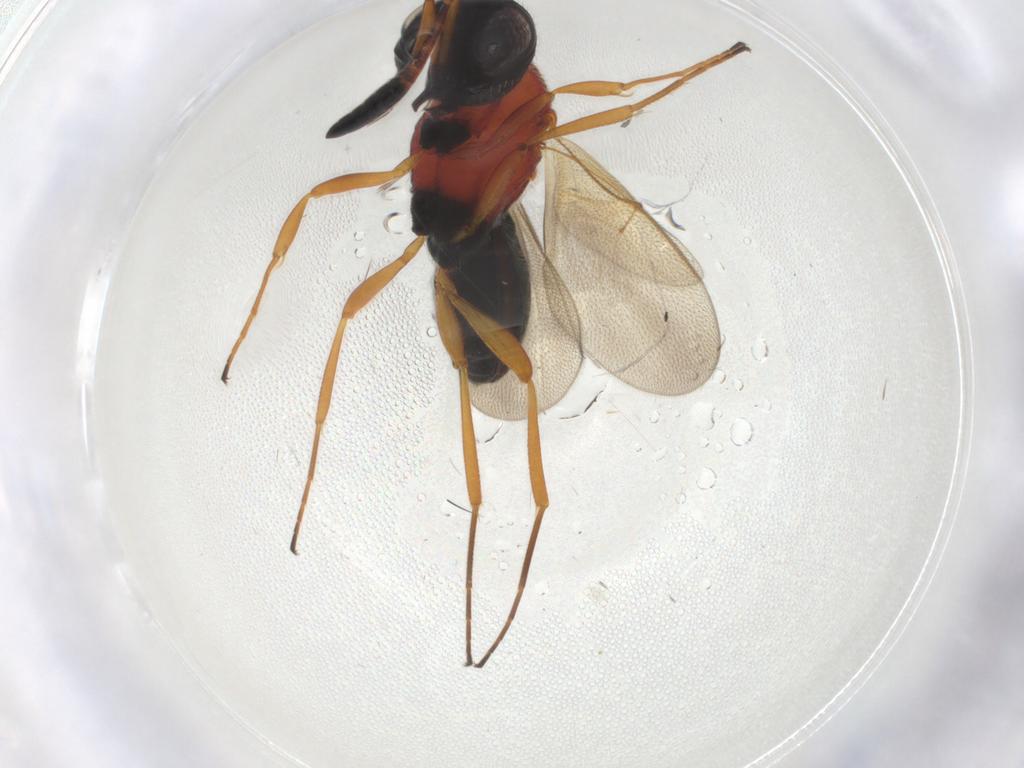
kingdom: Animalia
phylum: Arthropoda
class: Insecta
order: Hymenoptera
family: Scelionidae
